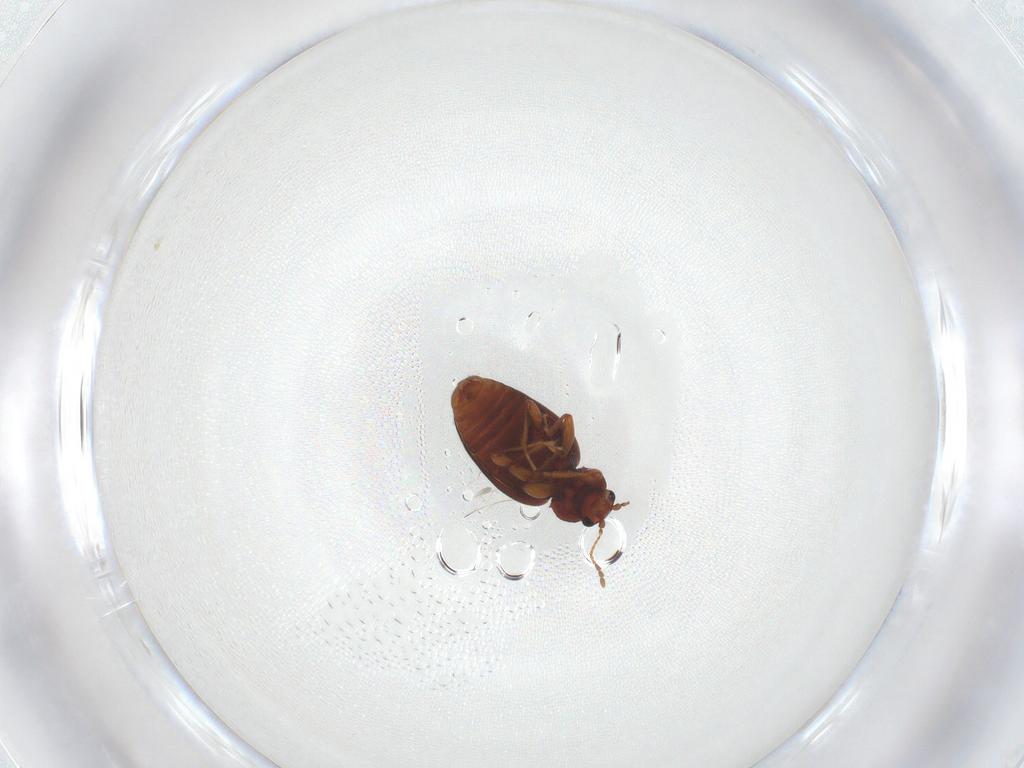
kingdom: Animalia
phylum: Arthropoda
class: Insecta
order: Coleoptera
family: Latridiidae
